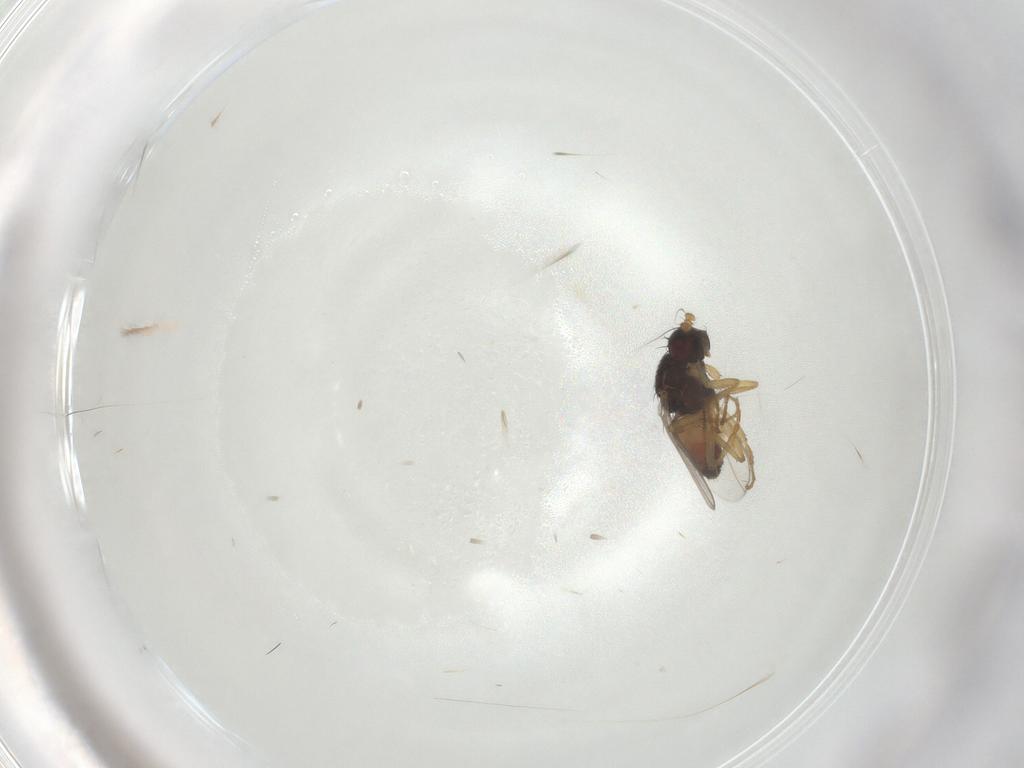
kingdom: Animalia
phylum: Arthropoda
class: Insecta
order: Diptera
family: Sphaeroceridae
